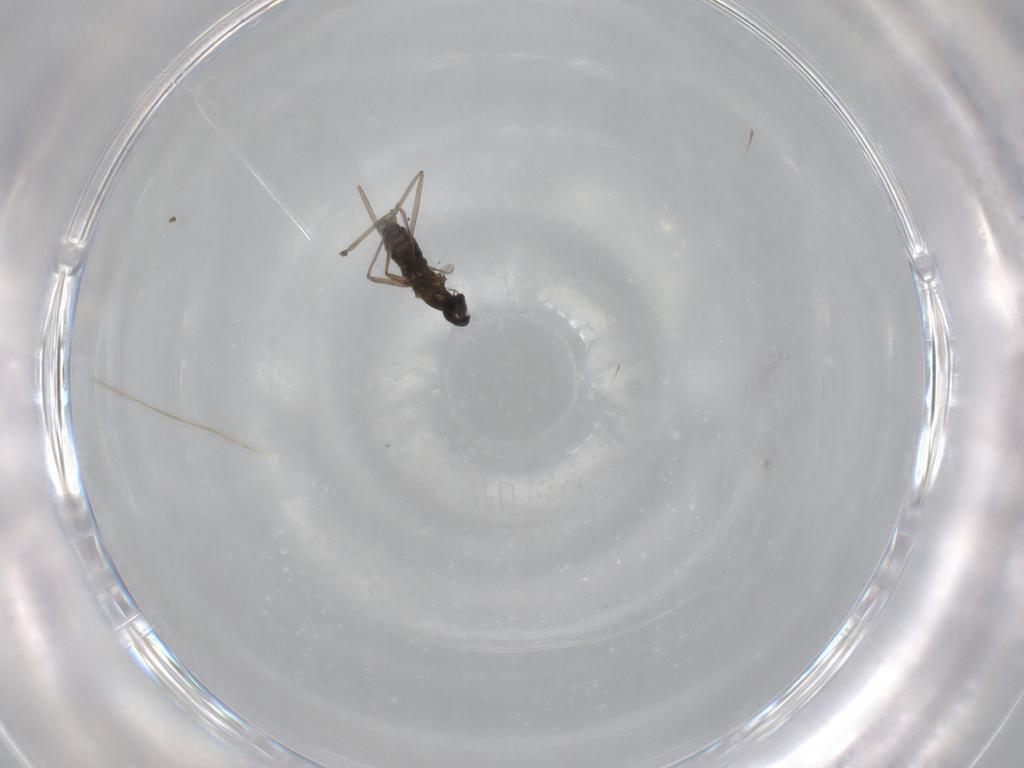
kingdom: Animalia
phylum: Arthropoda
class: Insecta
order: Diptera
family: Cecidomyiidae
